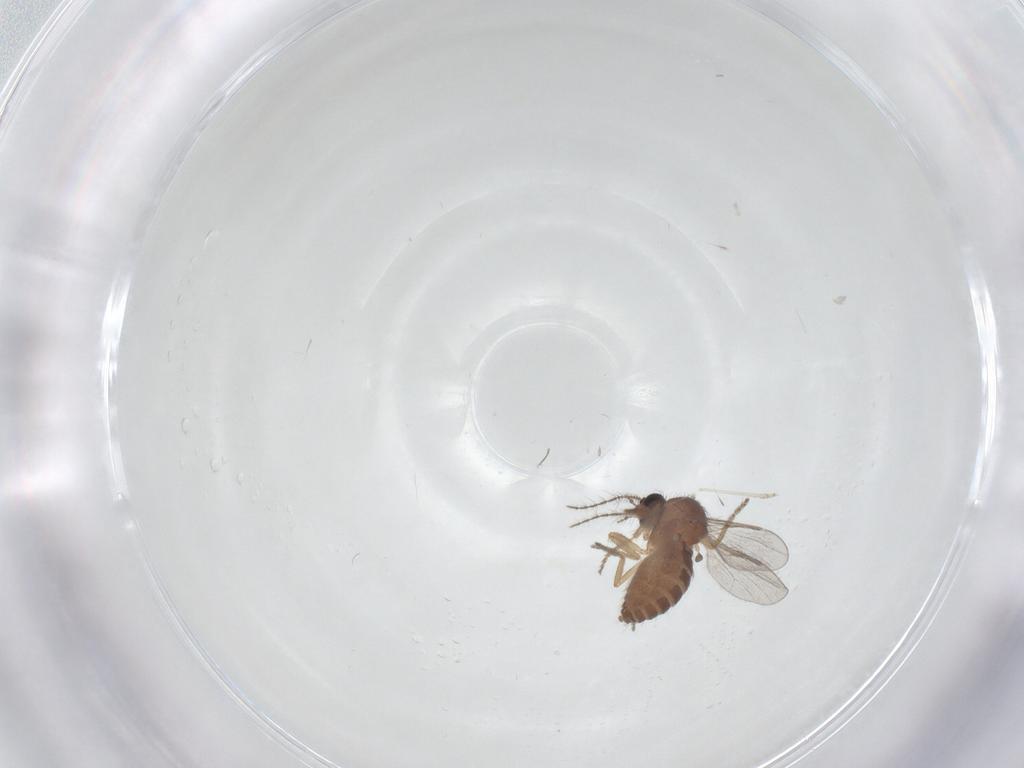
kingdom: Animalia
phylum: Arthropoda
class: Insecta
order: Diptera
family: Ceratopogonidae
